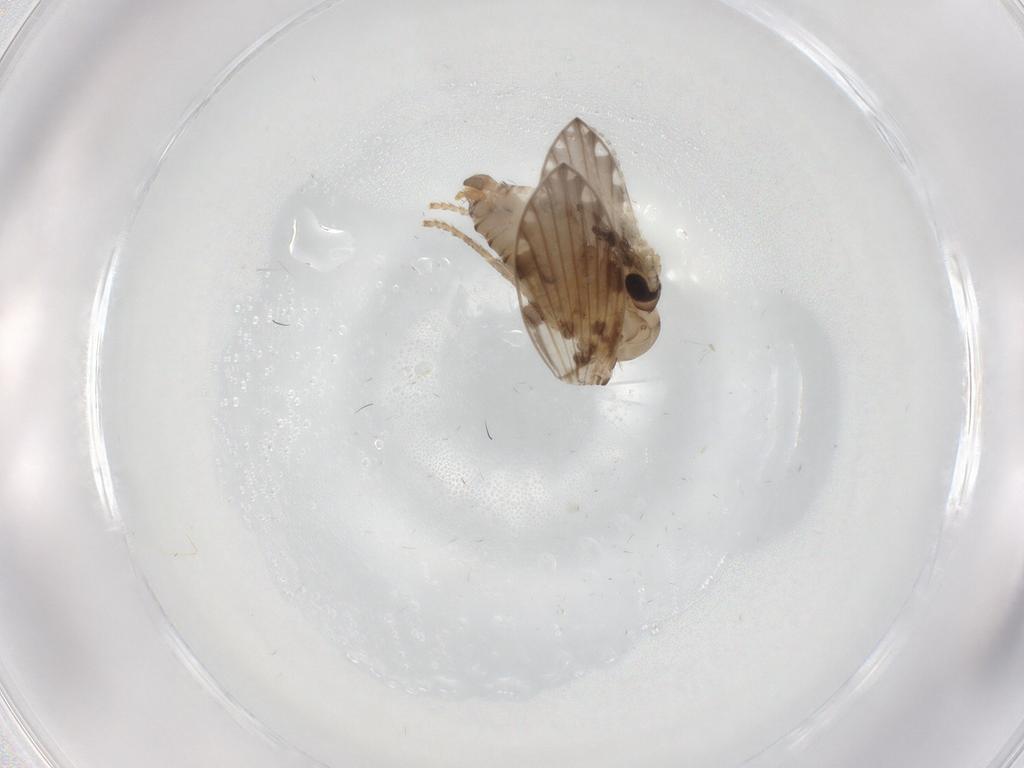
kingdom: Animalia
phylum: Arthropoda
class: Insecta
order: Diptera
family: Psychodidae
